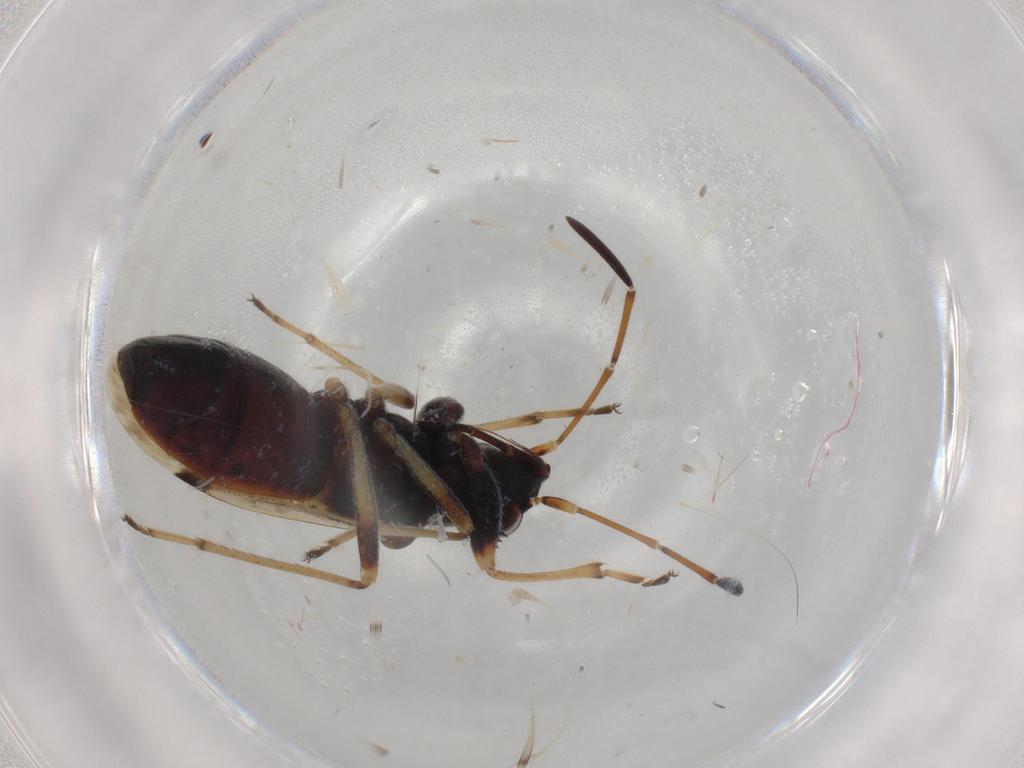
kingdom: Animalia
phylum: Arthropoda
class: Insecta
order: Hemiptera
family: Rhyparochromidae
